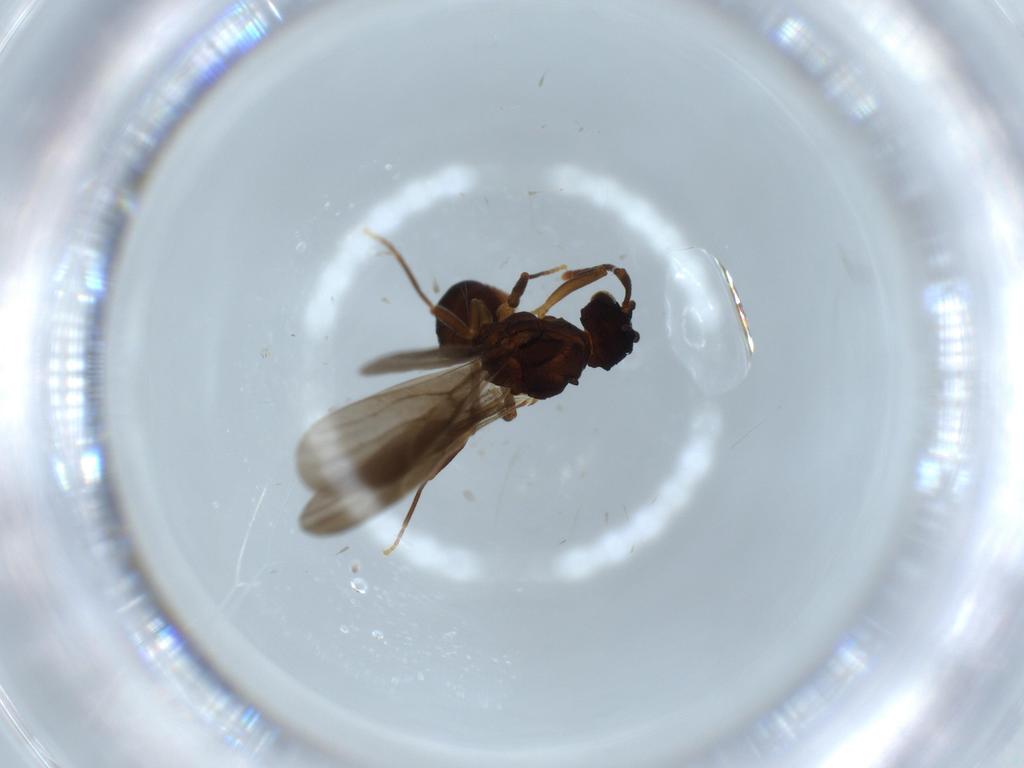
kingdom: Animalia
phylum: Arthropoda
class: Insecta
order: Hymenoptera
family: Formicidae
